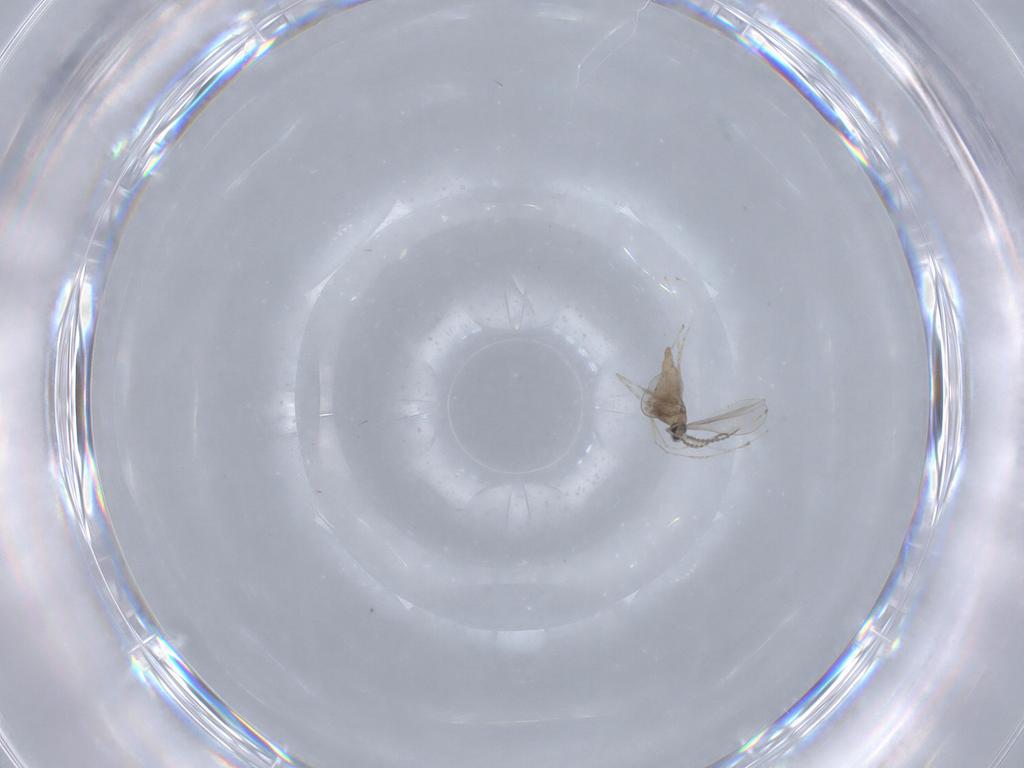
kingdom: Animalia
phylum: Arthropoda
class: Insecta
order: Diptera
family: Cecidomyiidae
